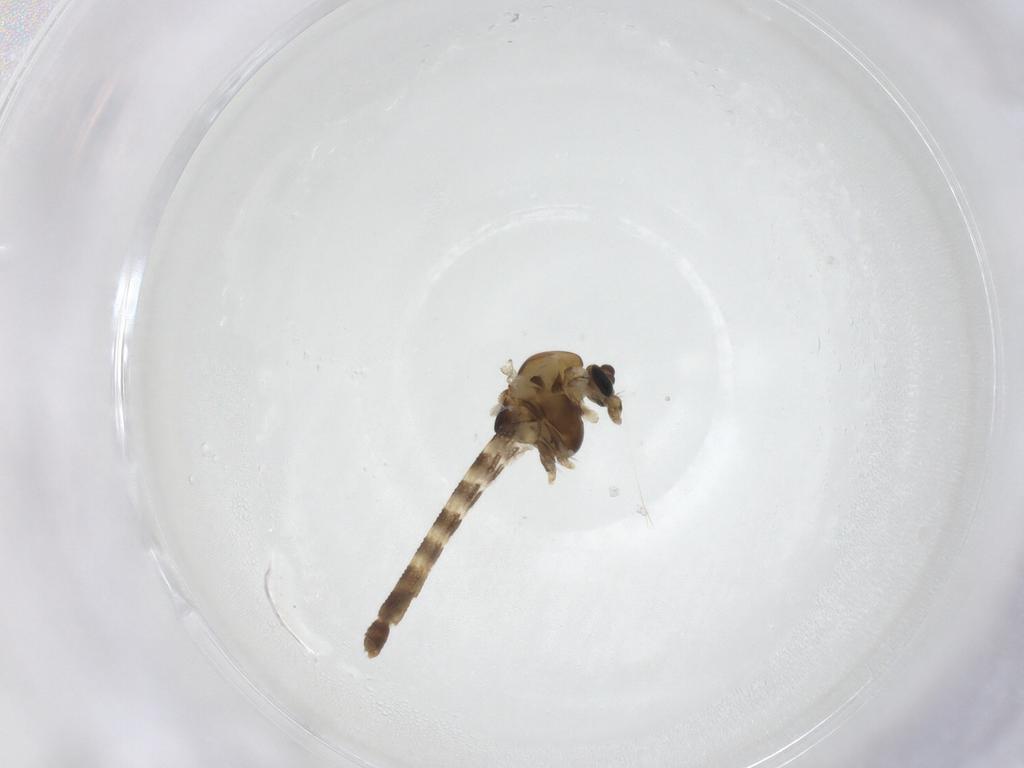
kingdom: Animalia
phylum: Arthropoda
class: Insecta
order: Diptera
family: Chironomidae
